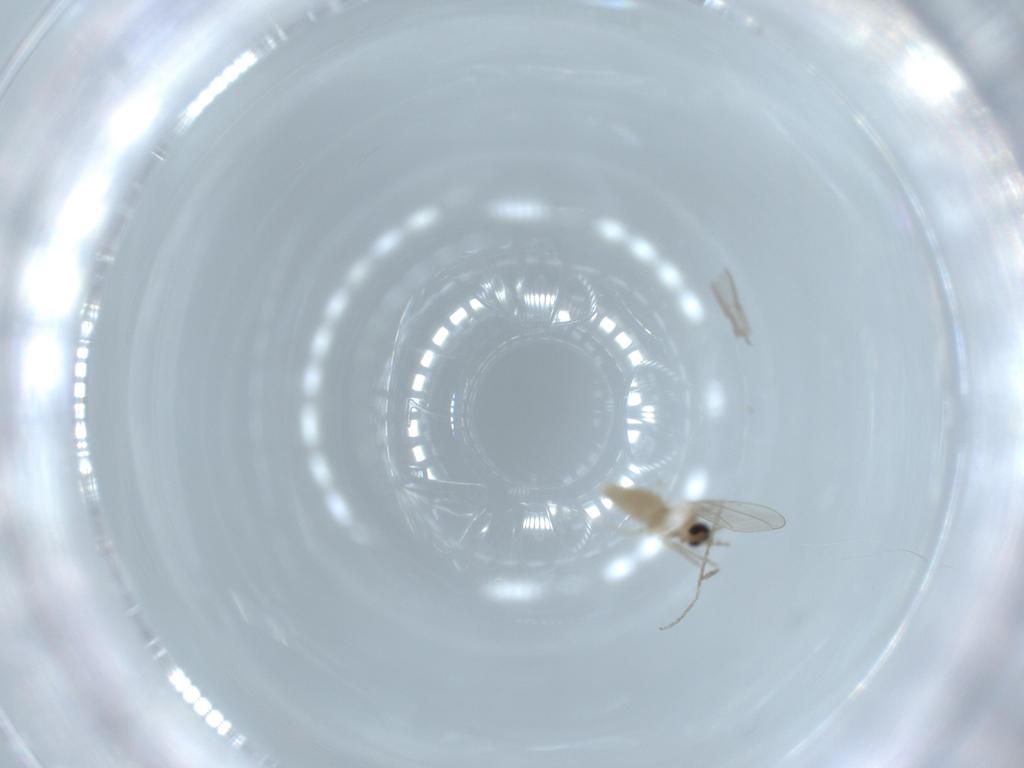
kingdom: Animalia
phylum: Arthropoda
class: Insecta
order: Diptera
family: Cecidomyiidae
